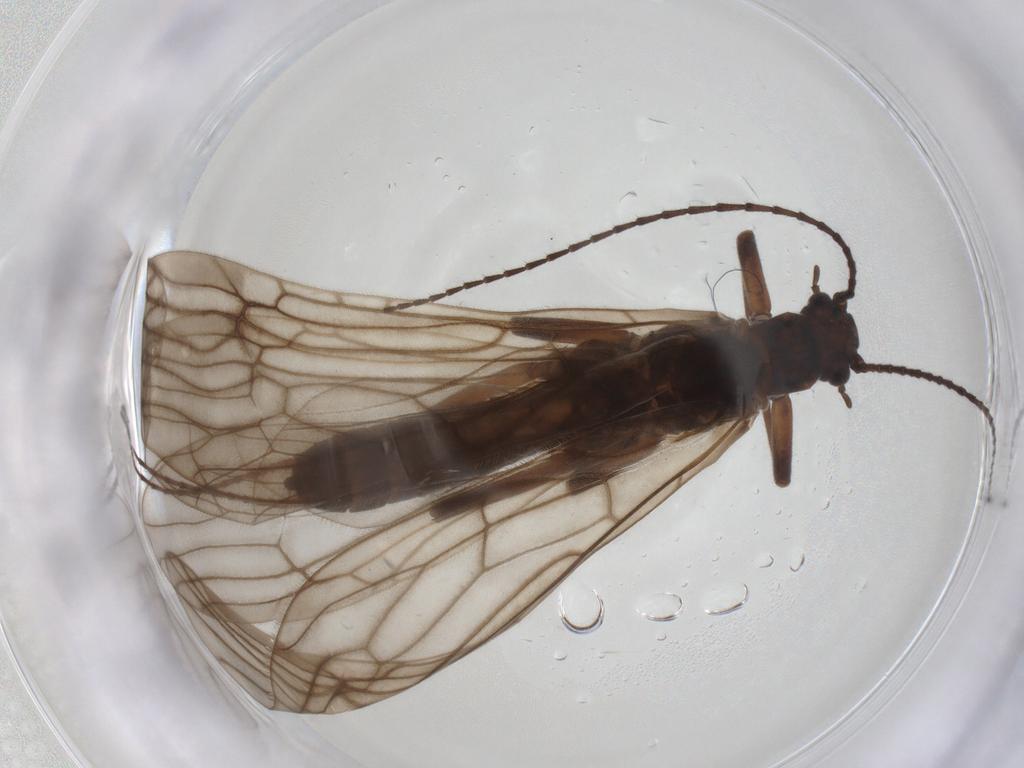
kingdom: Animalia
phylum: Arthropoda
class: Insecta
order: Plecoptera
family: Capniidae
